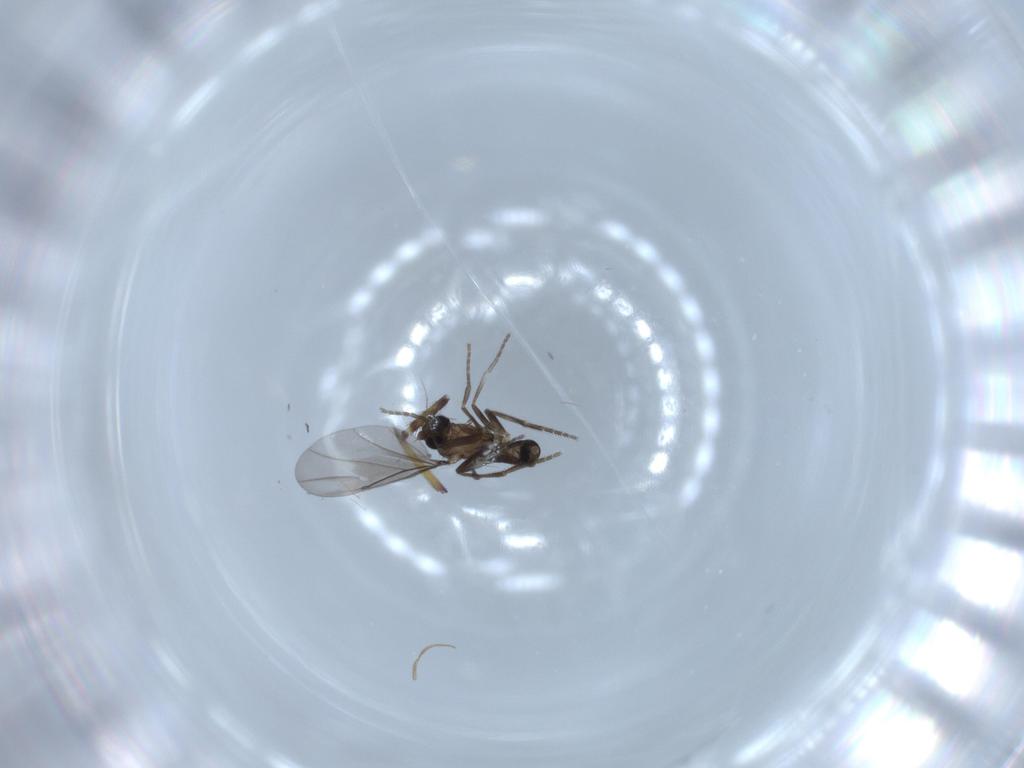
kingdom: Animalia
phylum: Arthropoda
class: Insecta
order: Diptera
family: Phoridae
